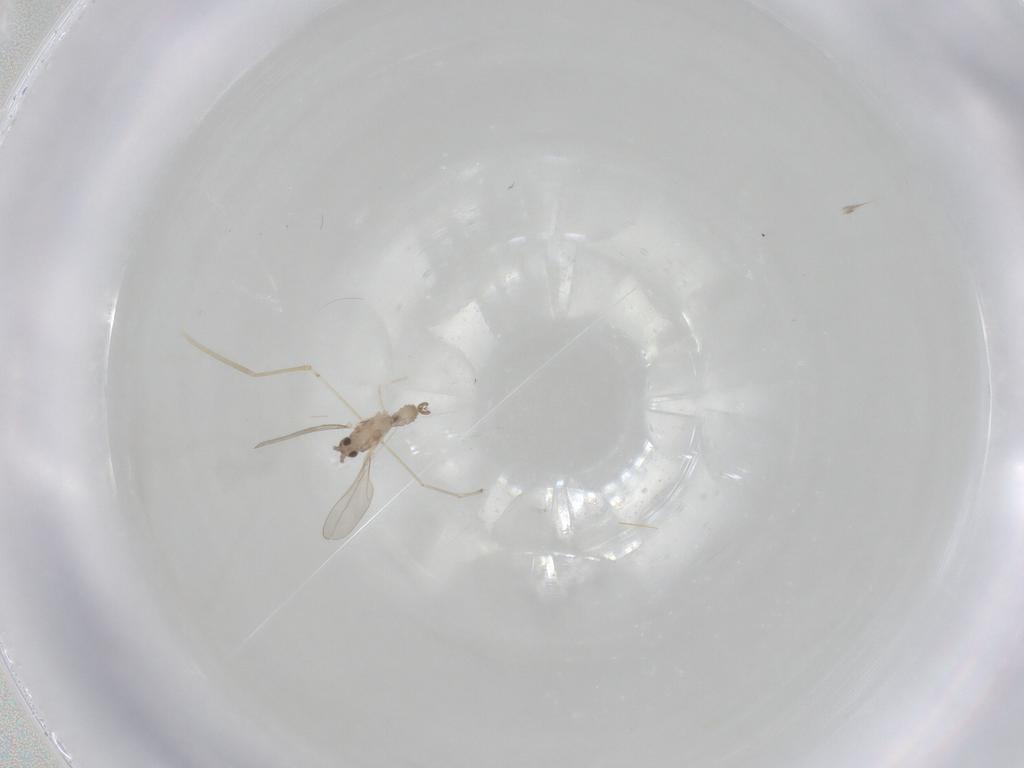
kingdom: Animalia
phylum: Arthropoda
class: Insecta
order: Diptera
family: Cecidomyiidae
